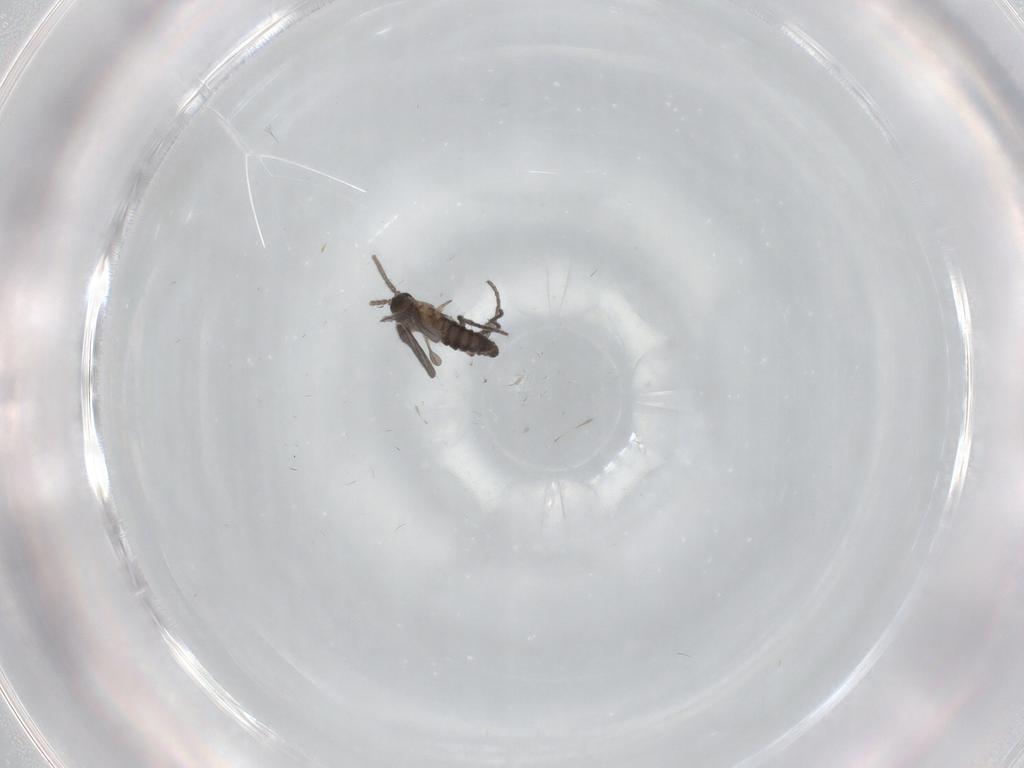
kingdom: Animalia
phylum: Arthropoda
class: Insecta
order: Diptera
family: Sciaridae
